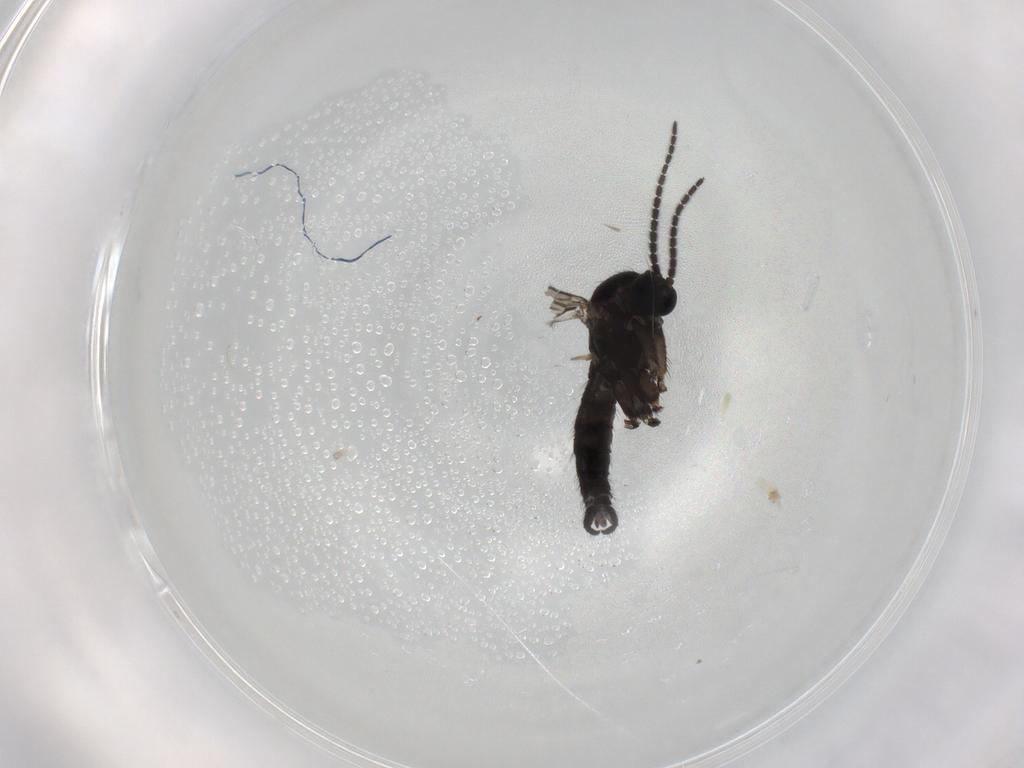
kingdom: Animalia
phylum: Arthropoda
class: Insecta
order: Diptera
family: Sciaridae
